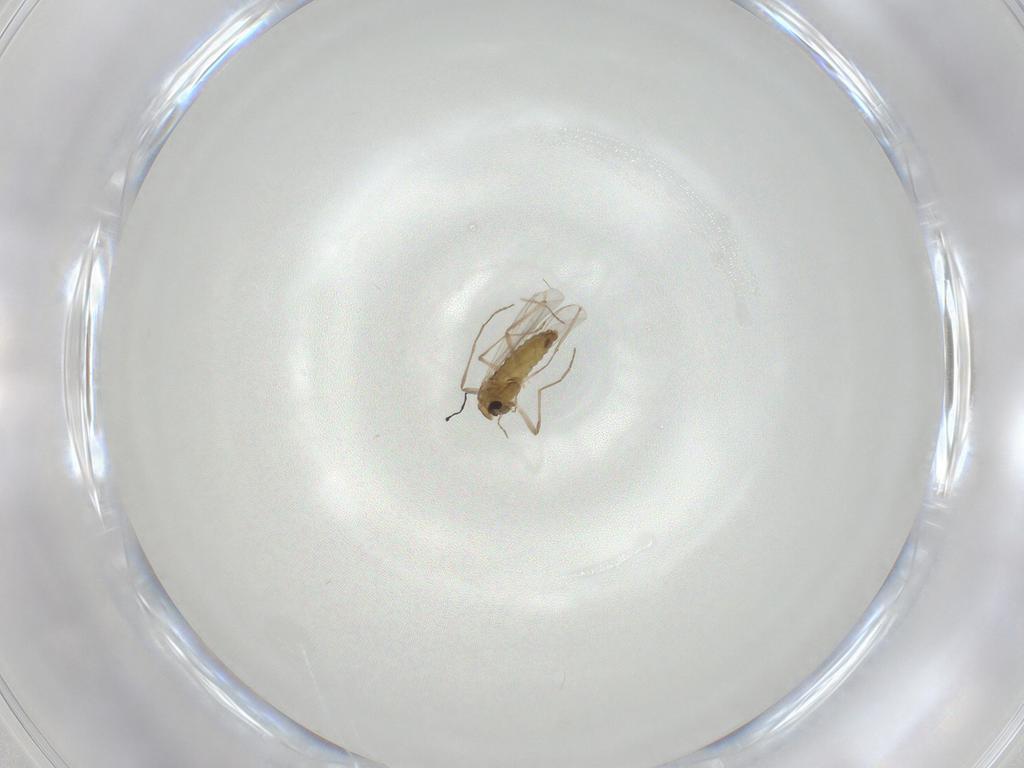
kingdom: Animalia
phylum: Arthropoda
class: Insecta
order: Diptera
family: Chironomidae
